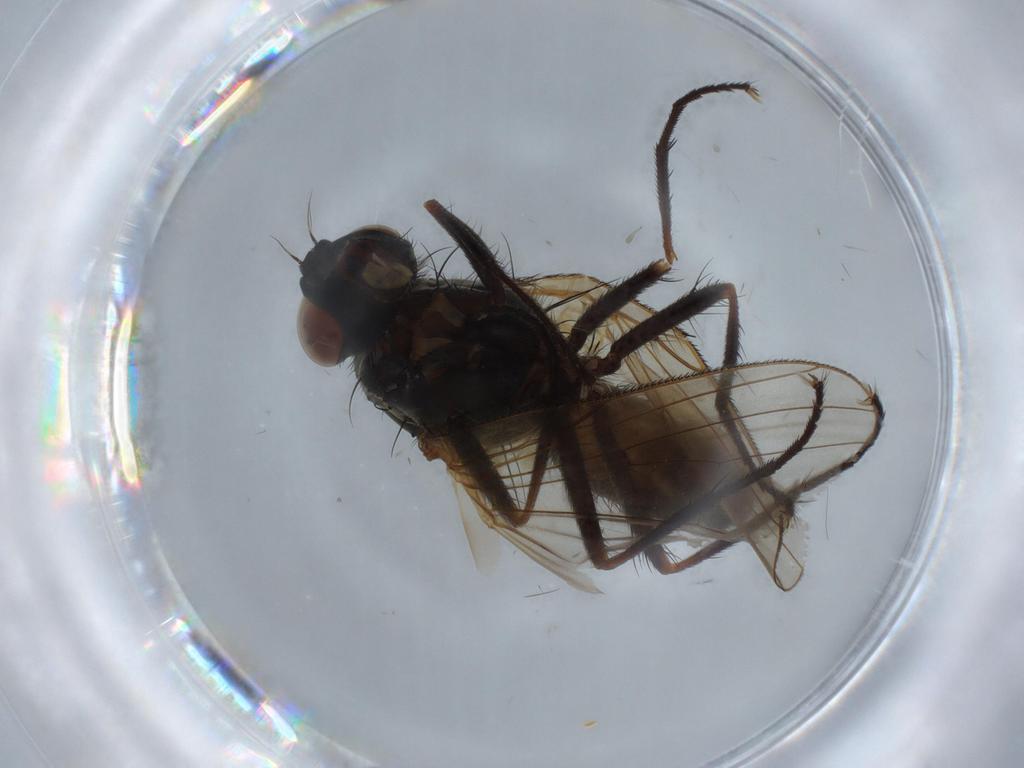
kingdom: Animalia
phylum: Arthropoda
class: Insecta
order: Diptera
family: Anthomyiidae
